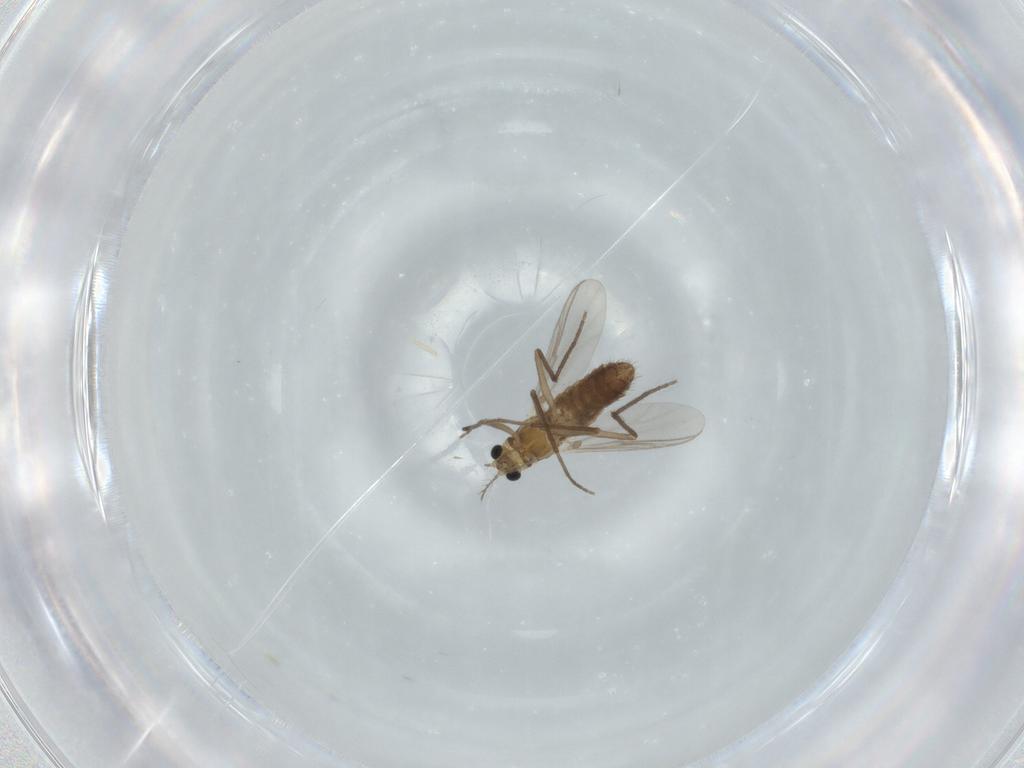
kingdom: Animalia
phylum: Arthropoda
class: Insecta
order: Diptera
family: Chironomidae
